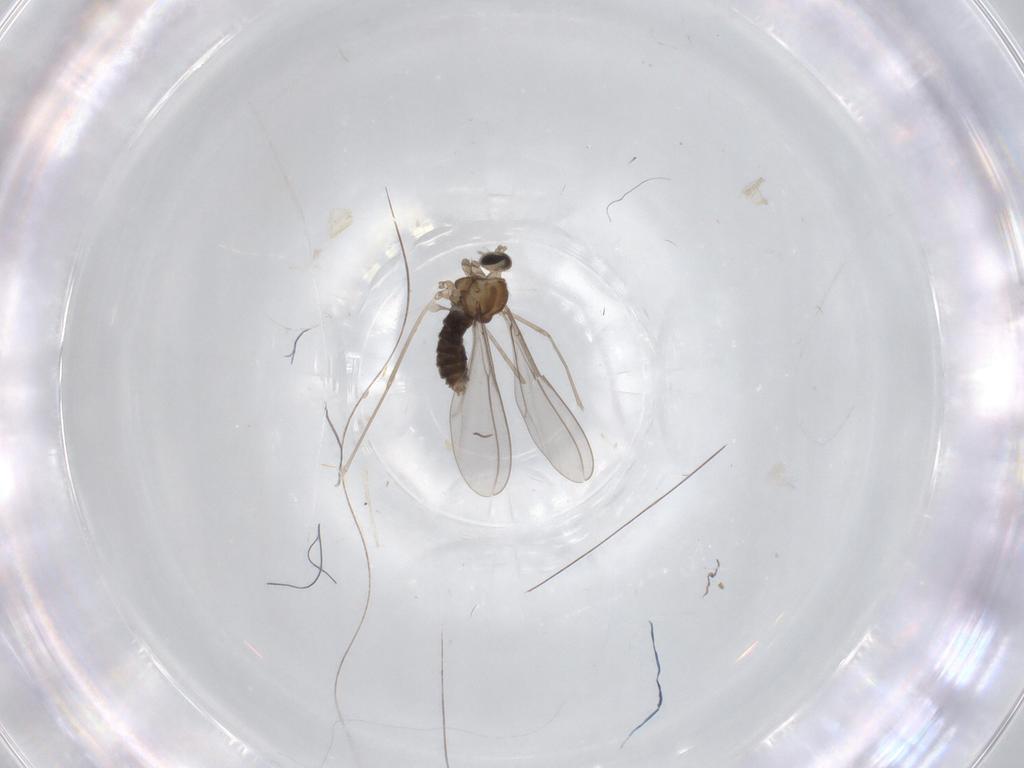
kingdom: Animalia
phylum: Arthropoda
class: Insecta
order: Diptera
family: Cecidomyiidae
